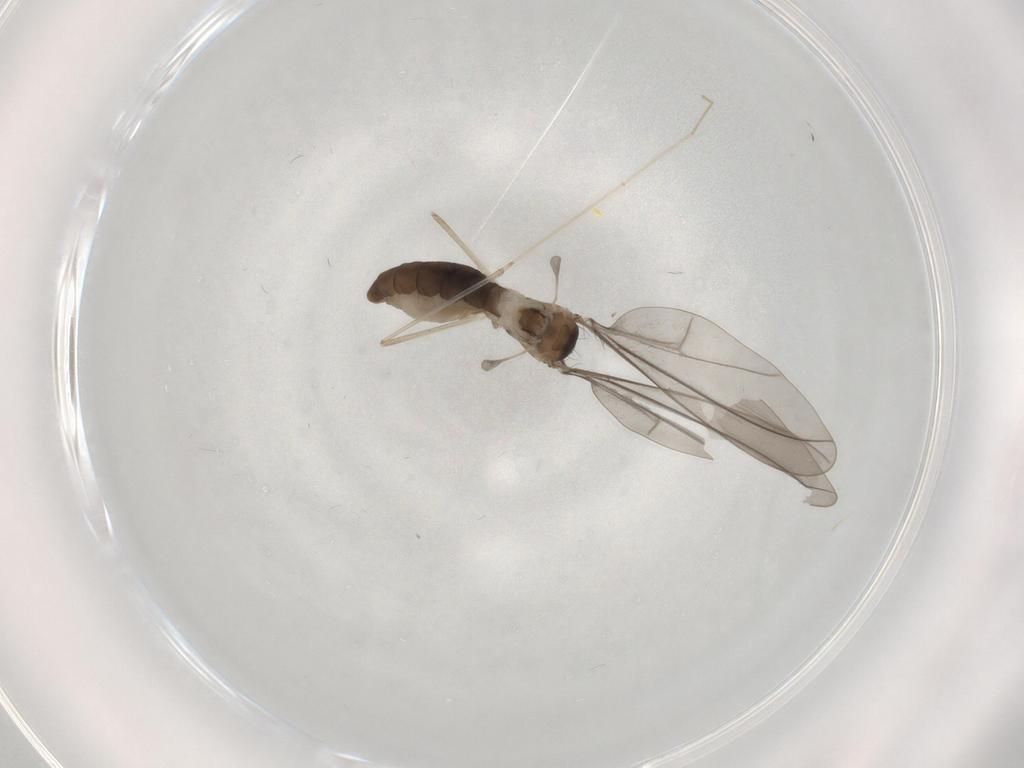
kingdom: Animalia
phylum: Arthropoda
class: Insecta
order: Diptera
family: Cecidomyiidae
